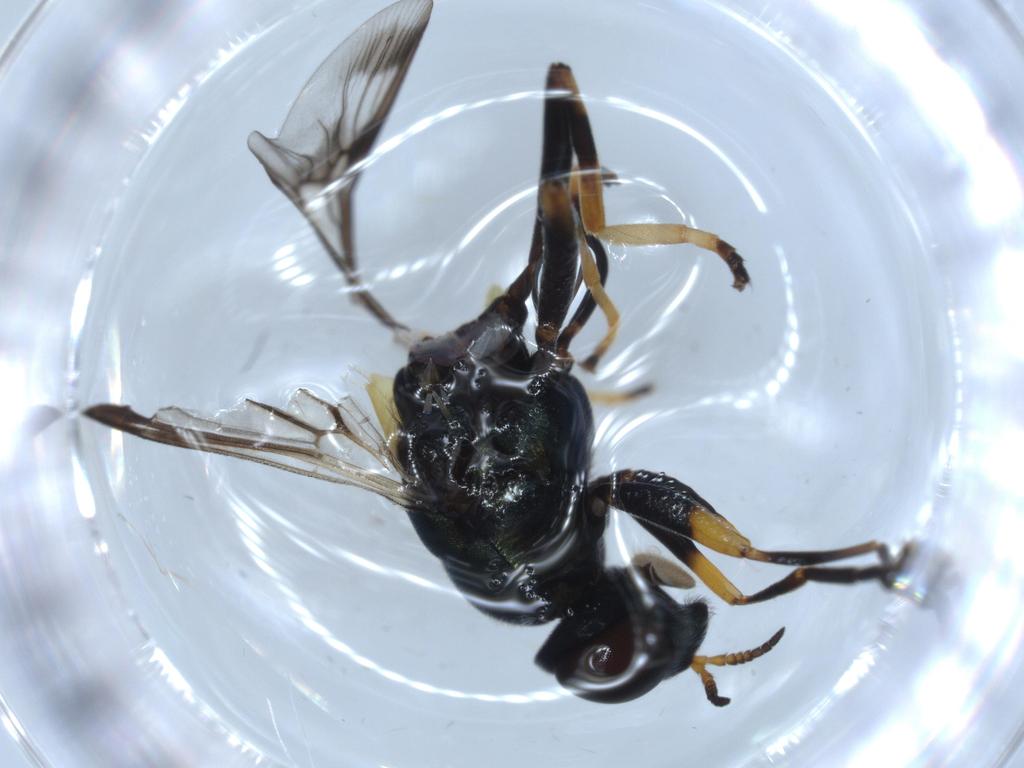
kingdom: Animalia
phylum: Arthropoda
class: Insecta
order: Diptera
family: Stratiomyidae
